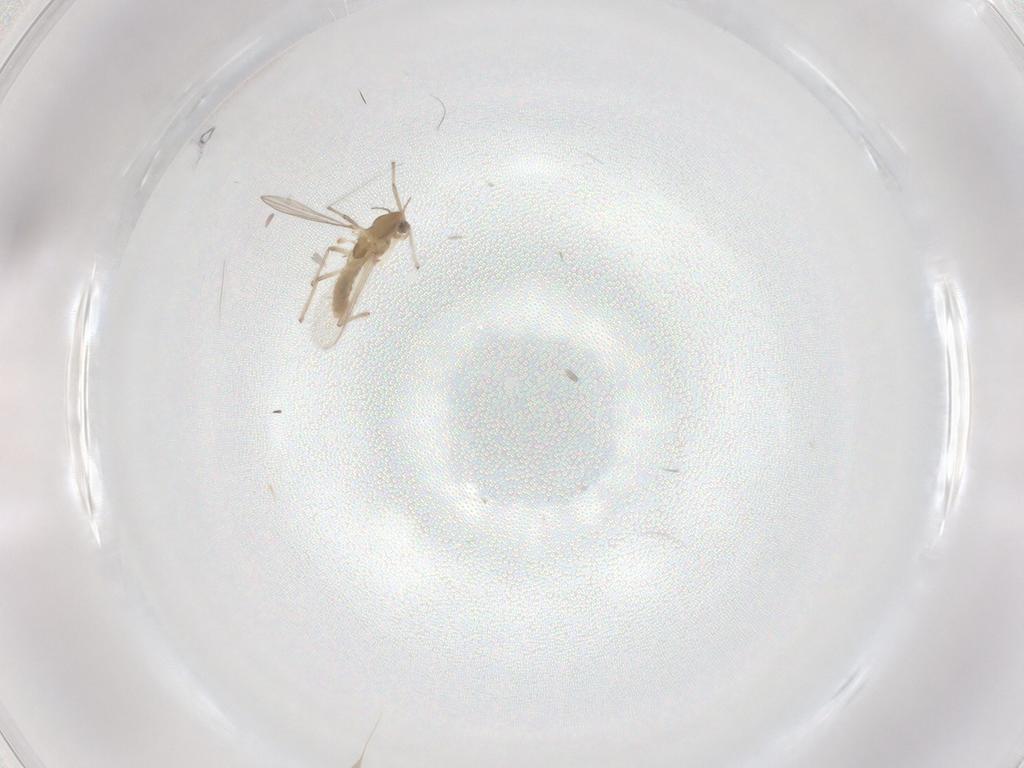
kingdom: Animalia
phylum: Arthropoda
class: Insecta
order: Diptera
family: Chironomidae
